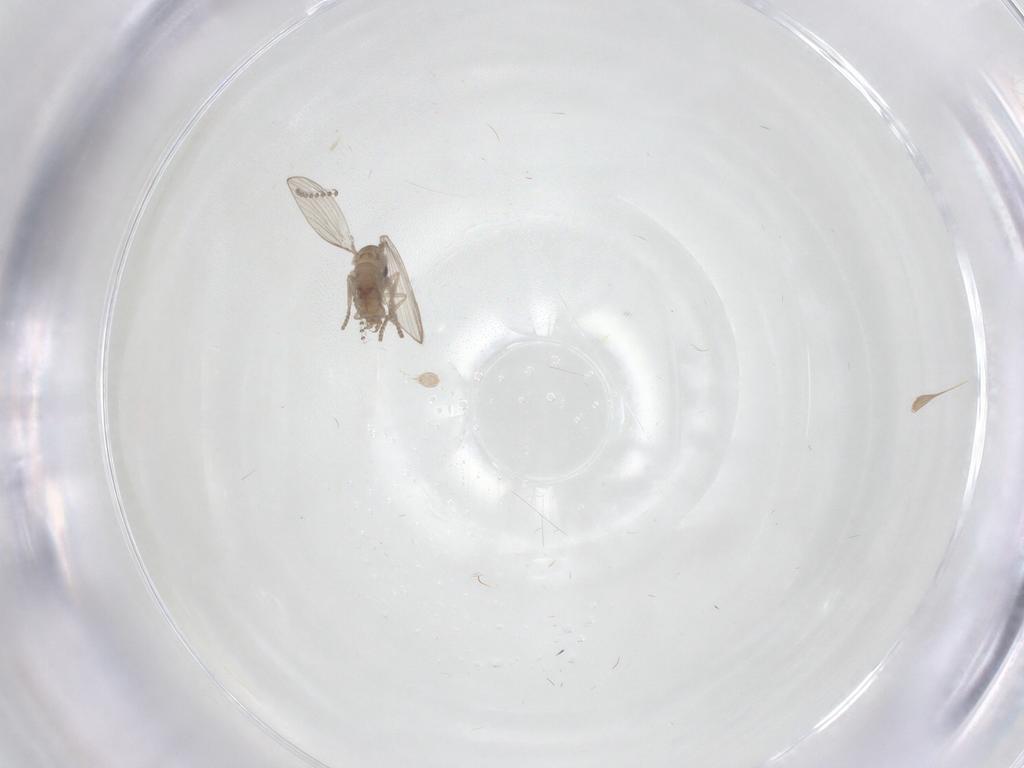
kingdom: Animalia
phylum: Arthropoda
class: Insecta
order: Diptera
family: Psychodidae
